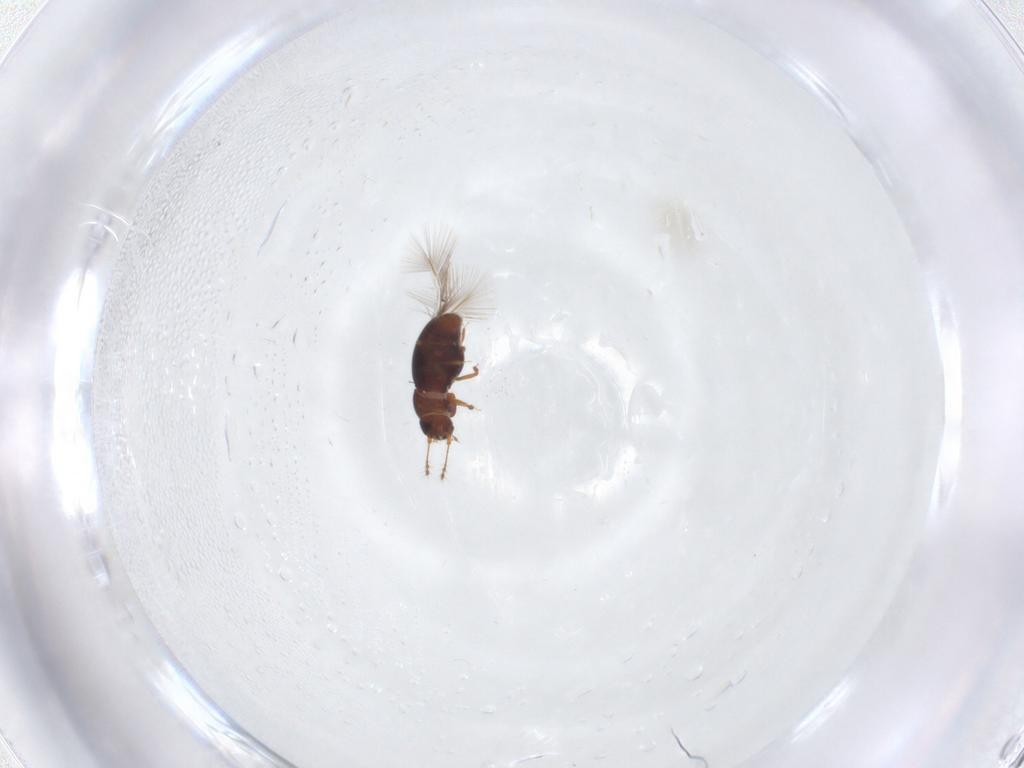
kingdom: Animalia
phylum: Arthropoda
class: Insecta
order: Coleoptera
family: Ptiliidae
